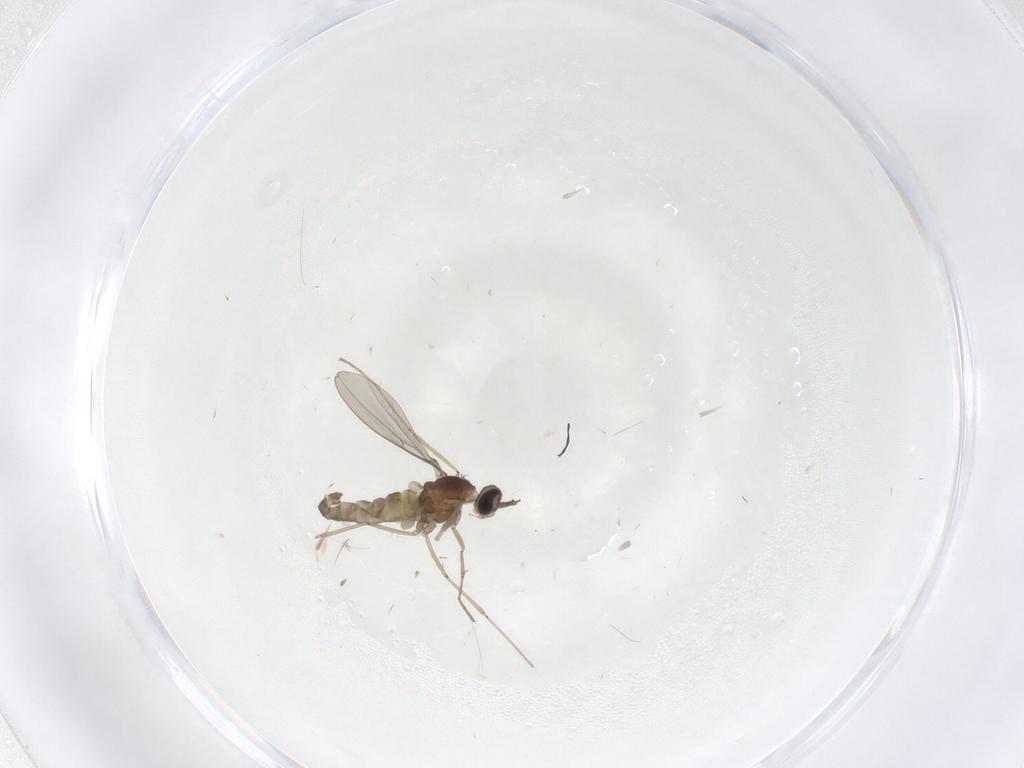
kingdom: Animalia
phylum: Arthropoda
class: Insecta
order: Diptera
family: Cecidomyiidae
